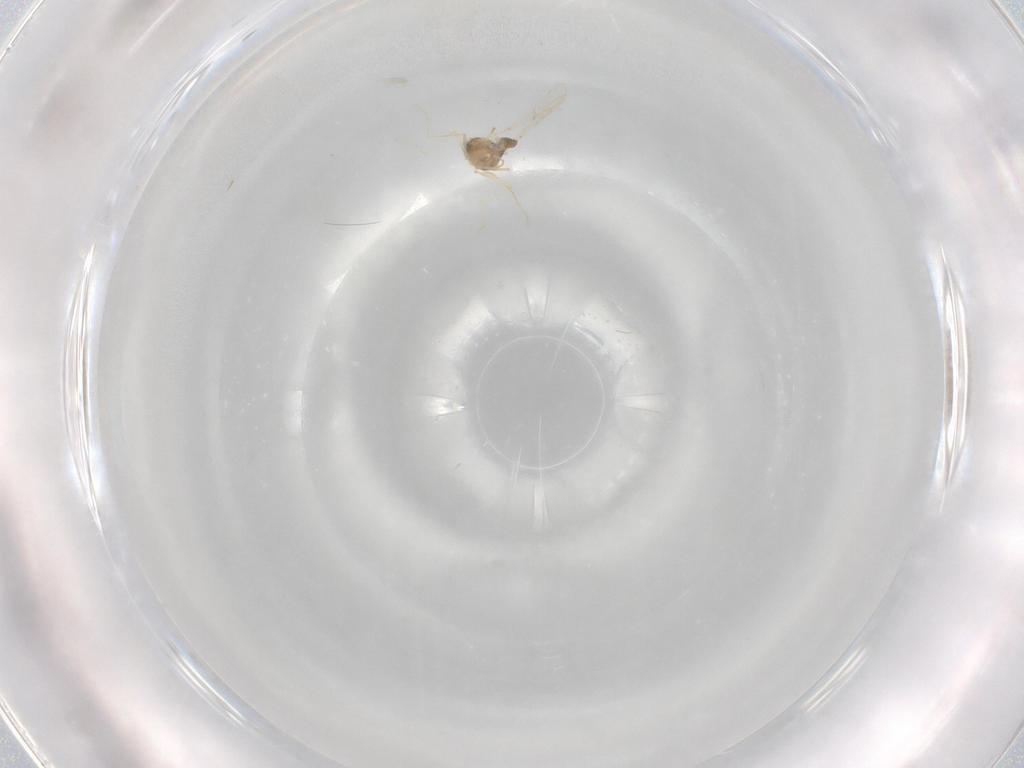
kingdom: Animalia
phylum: Arthropoda
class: Insecta
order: Diptera
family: Chironomidae
